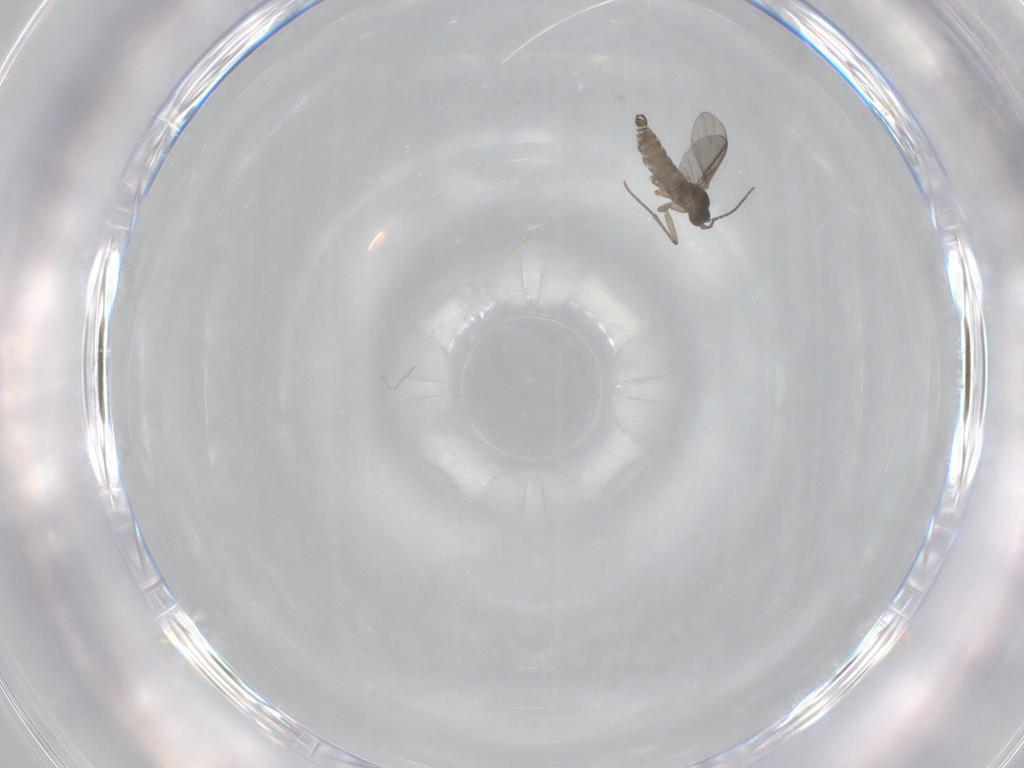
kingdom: Animalia
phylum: Arthropoda
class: Insecta
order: Diptera
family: Sciaridae
